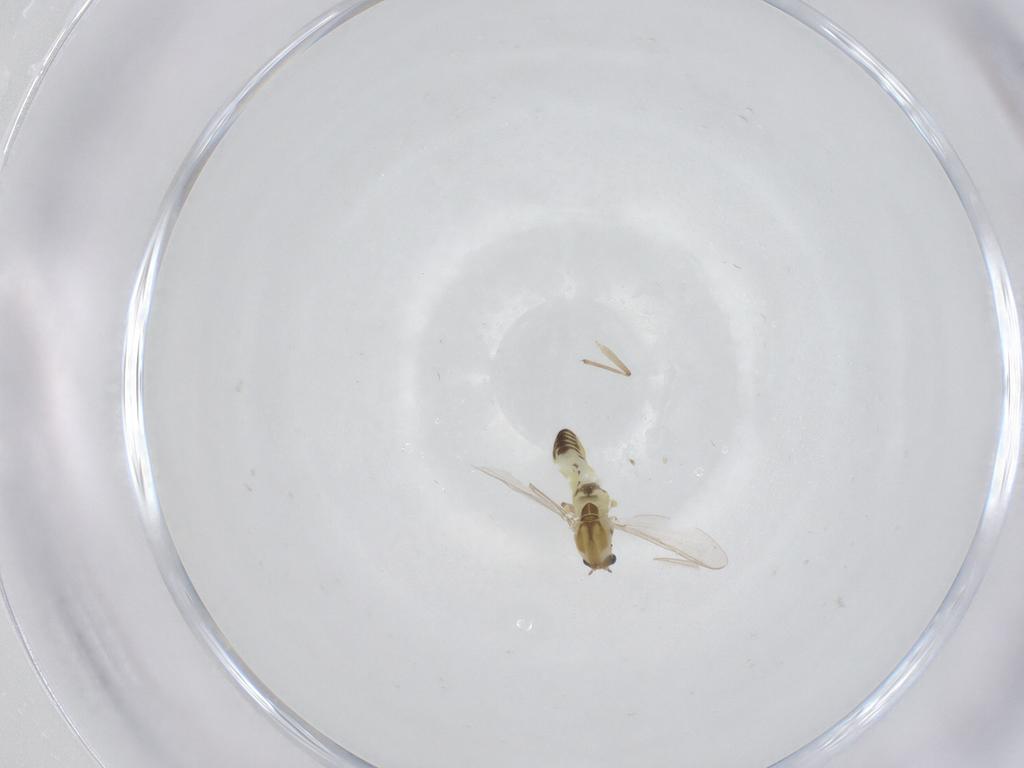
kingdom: Animalia
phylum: Arthropoda
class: Insecta
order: Diptera
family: Chironomidae
